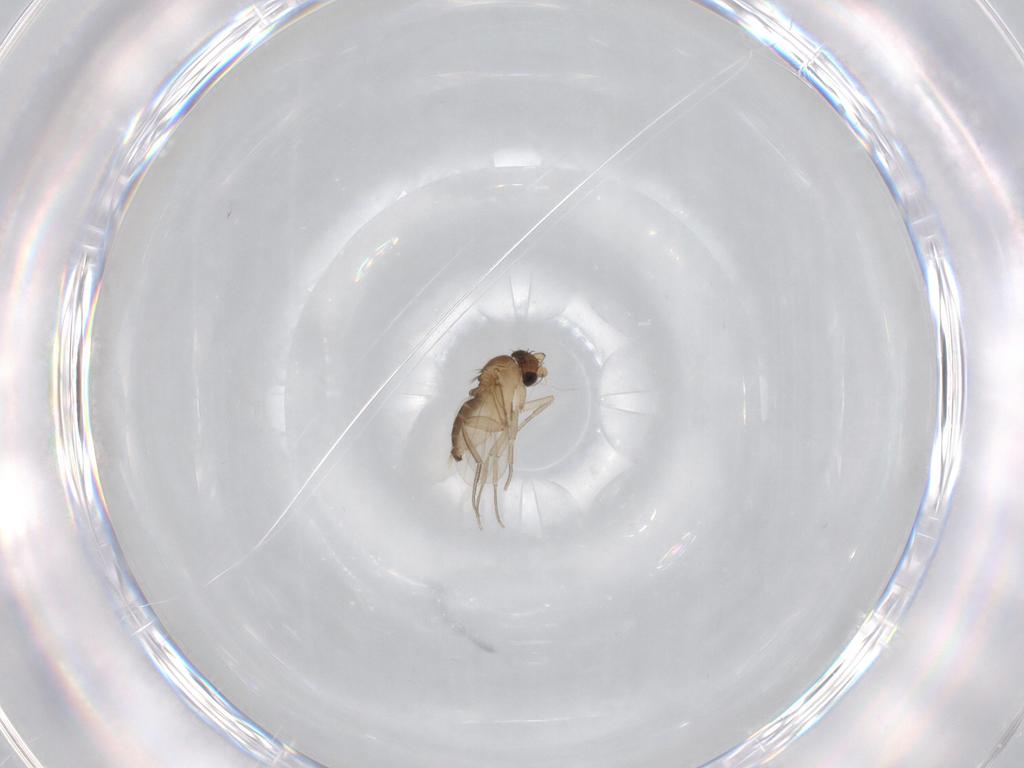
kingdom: Animalia
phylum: Arthropoda
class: Insecta
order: Diptera
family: Phoridae
